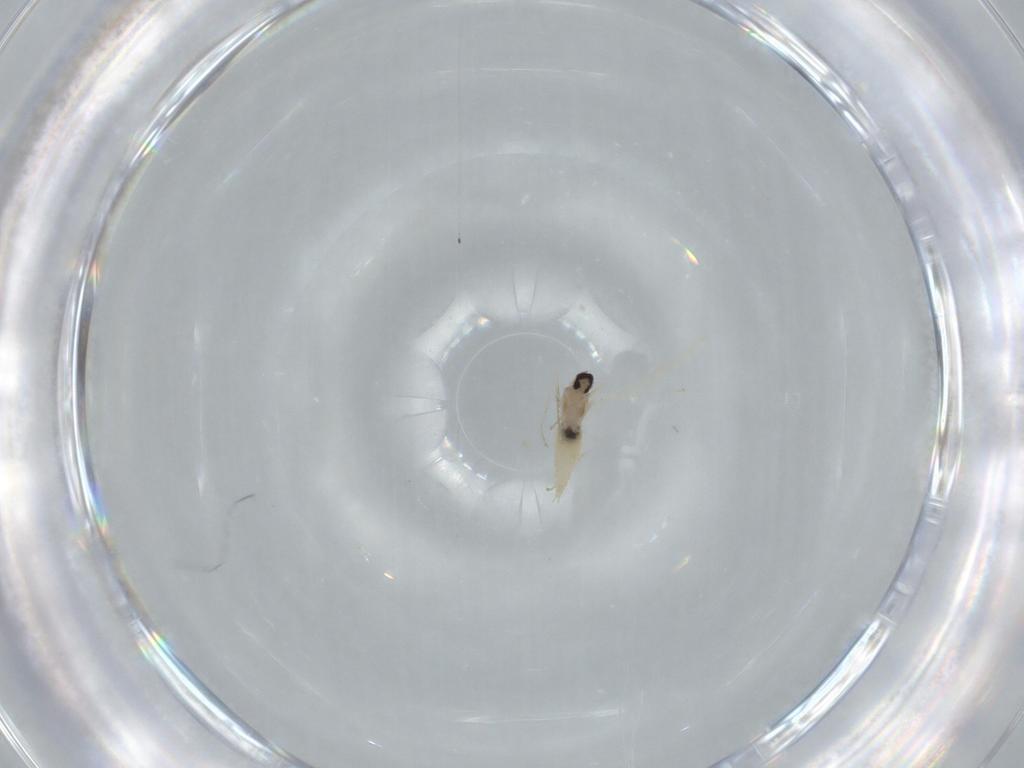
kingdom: Animalia
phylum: Arthropoda
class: Insecta
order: Diptera
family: Cecidomyiidae
